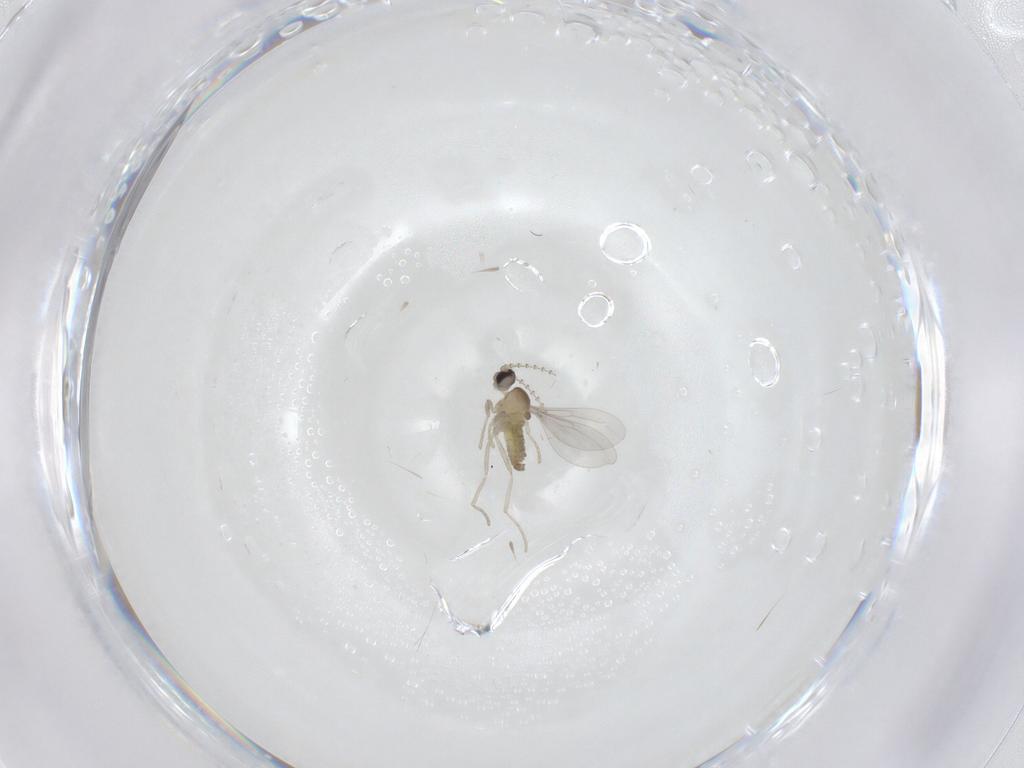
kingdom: Animalia
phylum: Arthropoda
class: Insecta
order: Diptera
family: Cecidomyiidae
